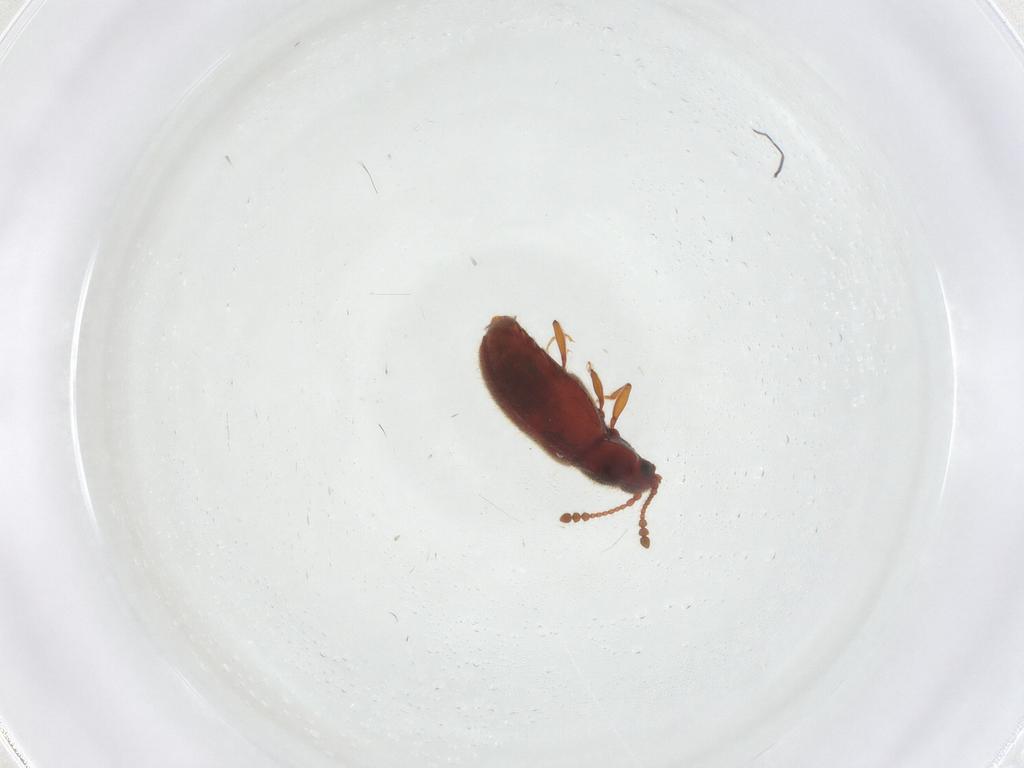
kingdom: Animalia
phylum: Arthropoda
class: Insecta
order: Coleoptera
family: Cryptophagidae
